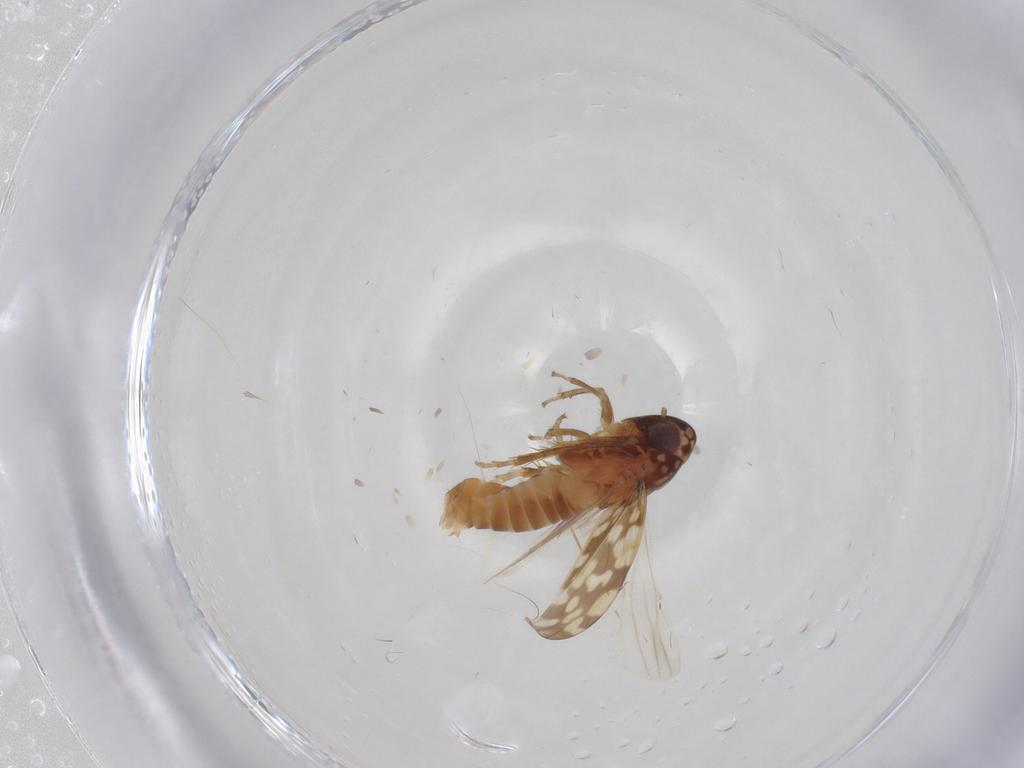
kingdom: Animalia
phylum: Arthropoda
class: Insecta
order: Hemiptera
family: Cicadellidae
